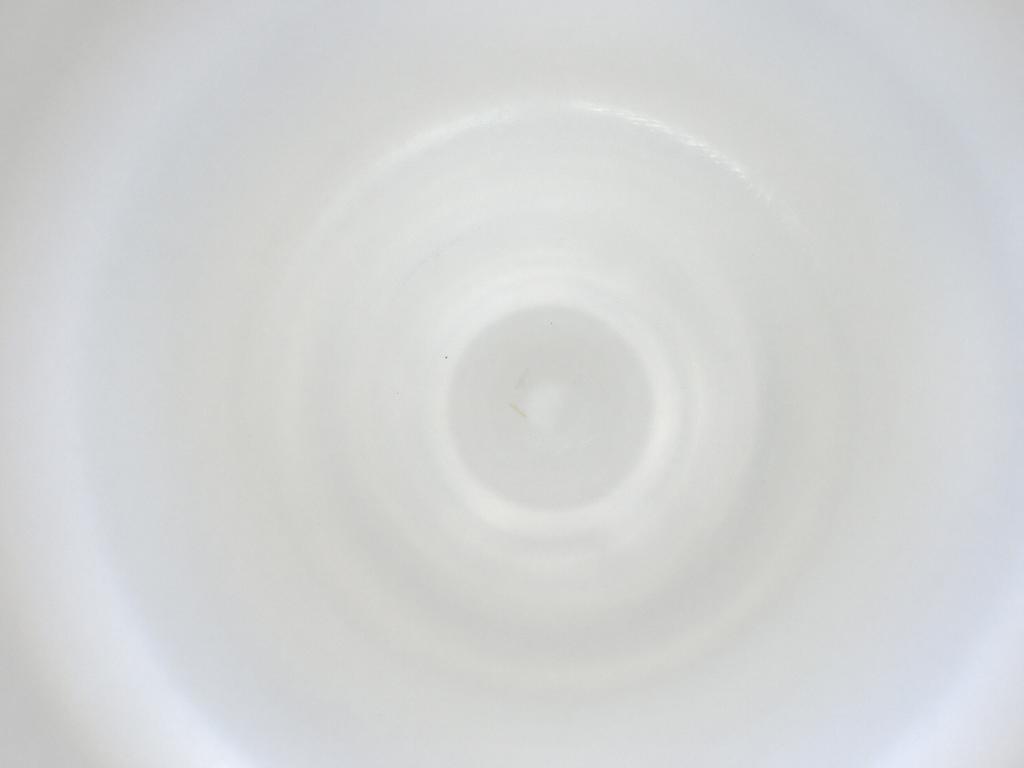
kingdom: Animalia
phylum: Arthropoda
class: Insecta
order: Diptera
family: Cecidomyiidae
